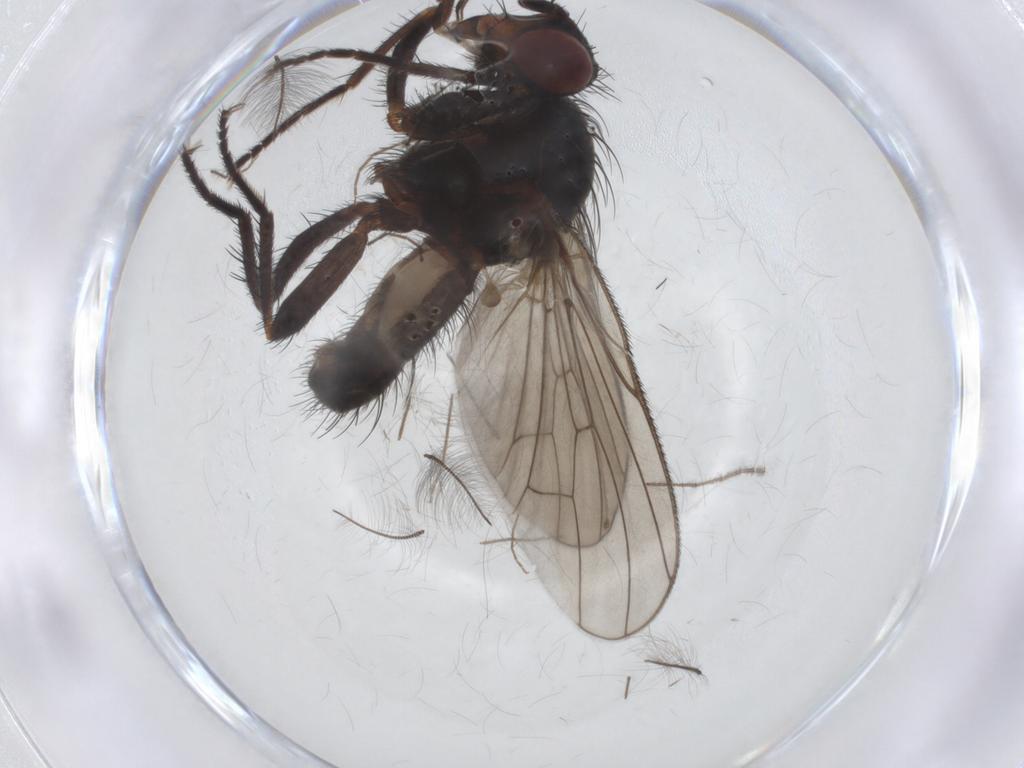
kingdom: Animalia
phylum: Arthropoda
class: Insecta
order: Diptera
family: Anthomyiidae
